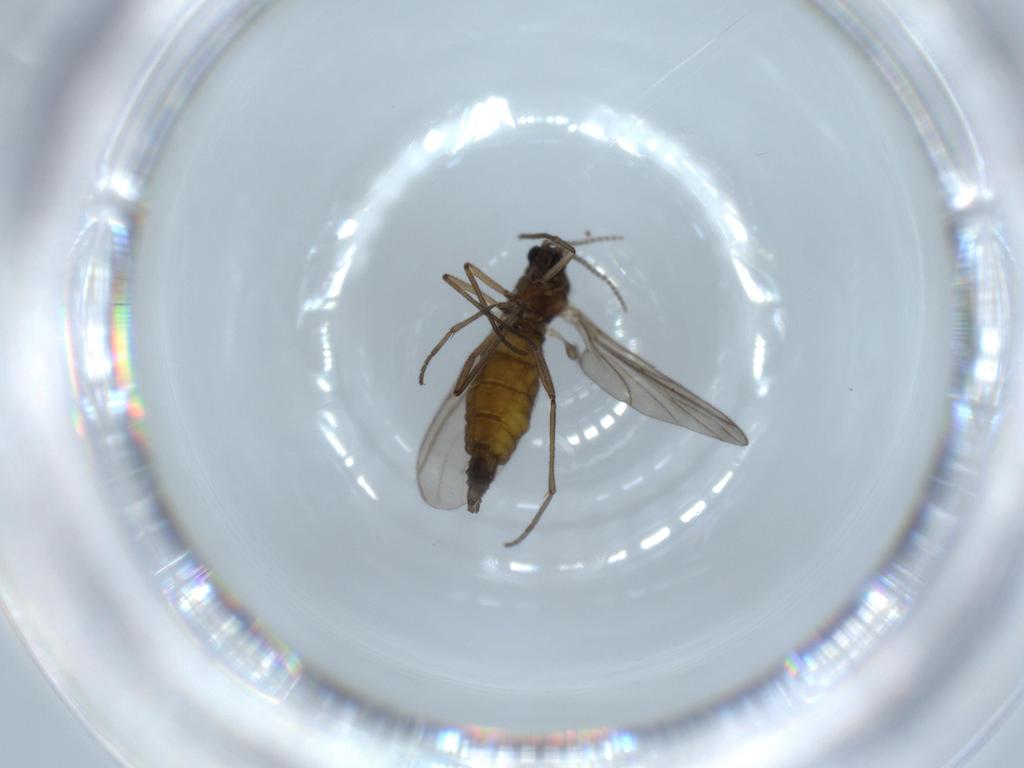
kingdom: Animalia
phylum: Arthropoda
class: Insecta
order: Diptera
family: Sciaridae
